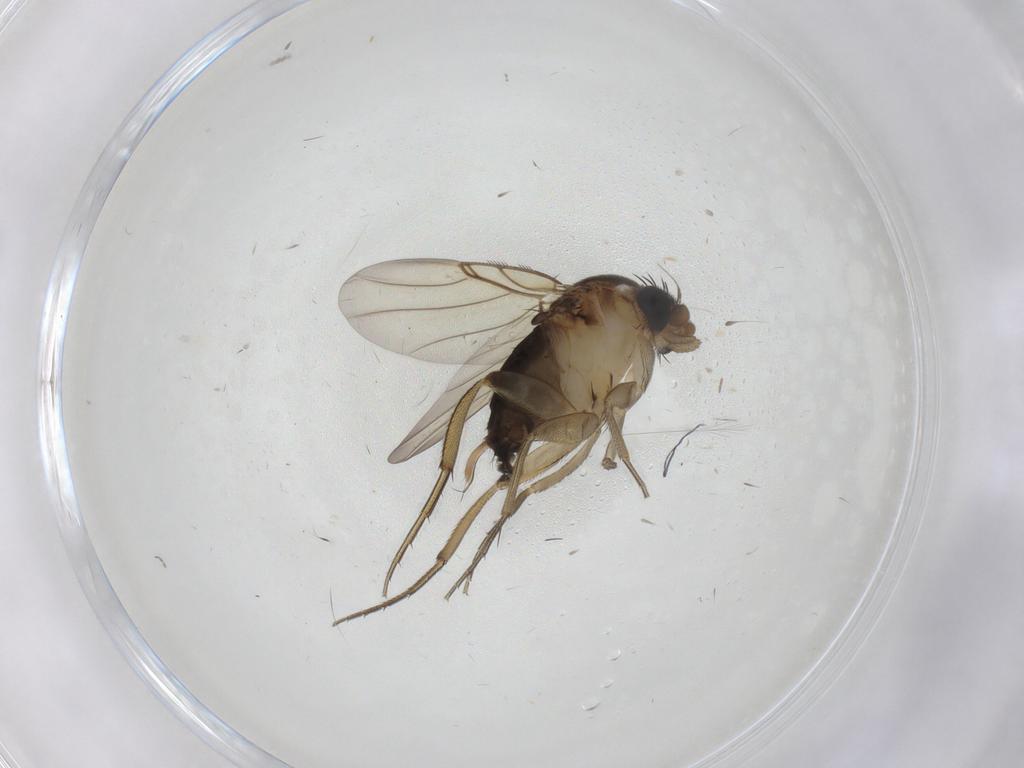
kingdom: Animalia
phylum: Arthropoda
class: Insecta
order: Diptera
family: Phoridae
